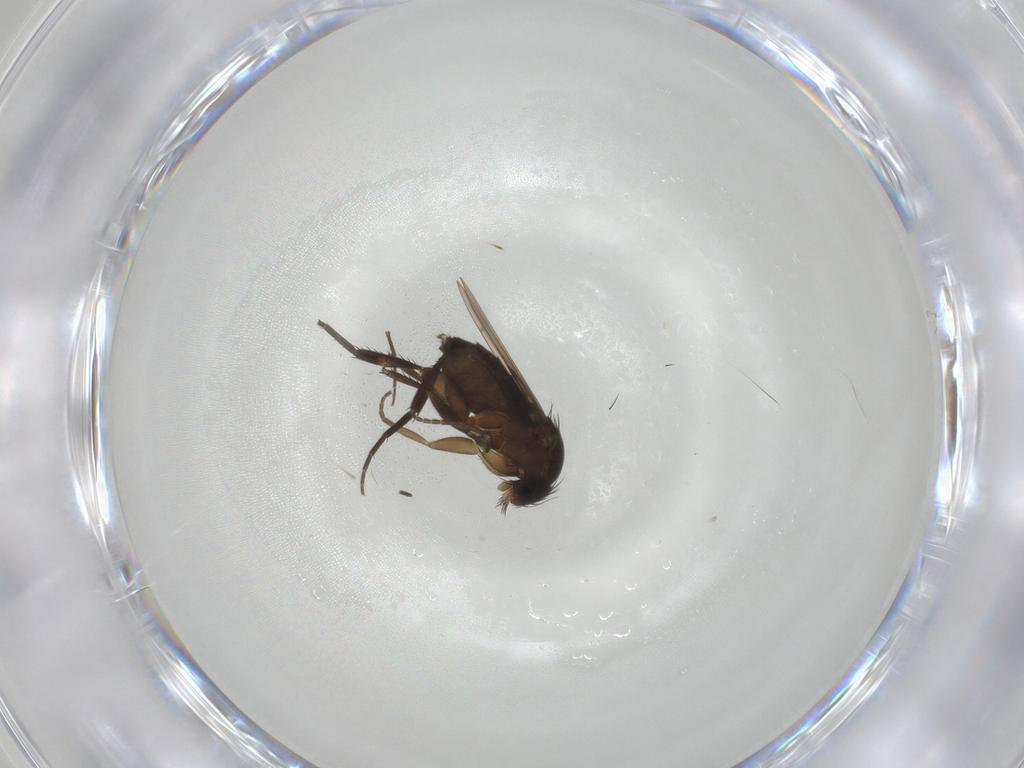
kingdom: Animalia
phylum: Arthropoda
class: Insecta
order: Diptera
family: Phoridae
